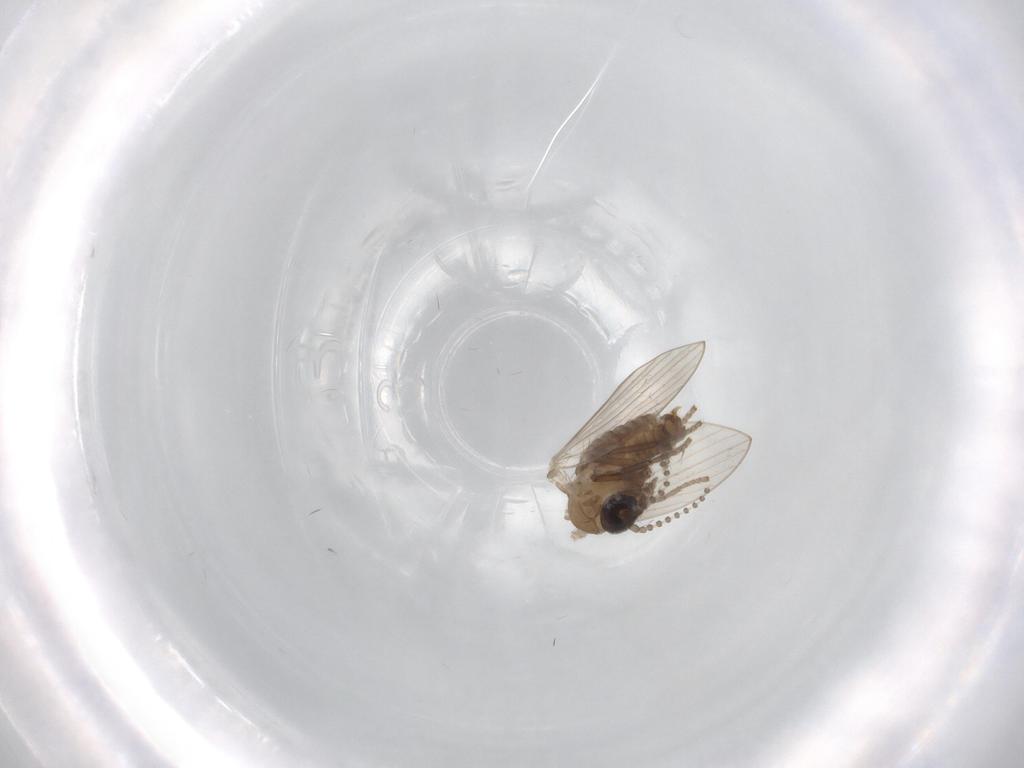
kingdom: Animalia
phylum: Arthropoda
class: Insecta
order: Diptera
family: Psychodidae
